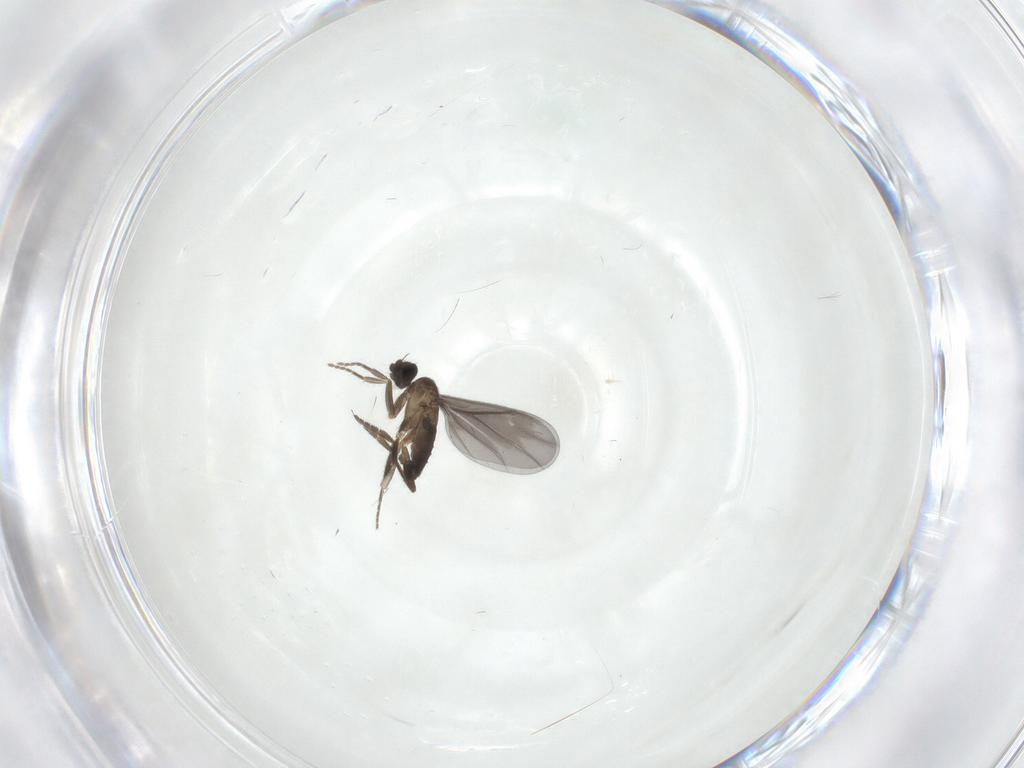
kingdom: Animalia
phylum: Arthropoda
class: Insecta
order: Diptera
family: Phoridae
